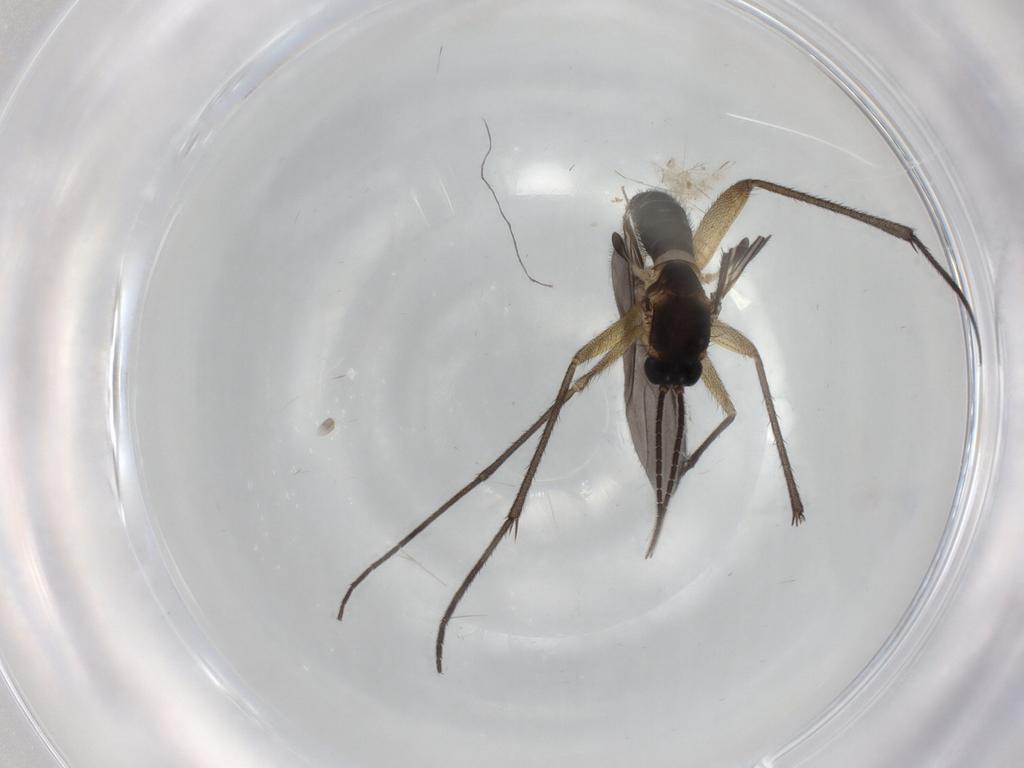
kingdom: Animalia
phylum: Arthropoda
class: Insecta
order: Diptera
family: Sciaridae
